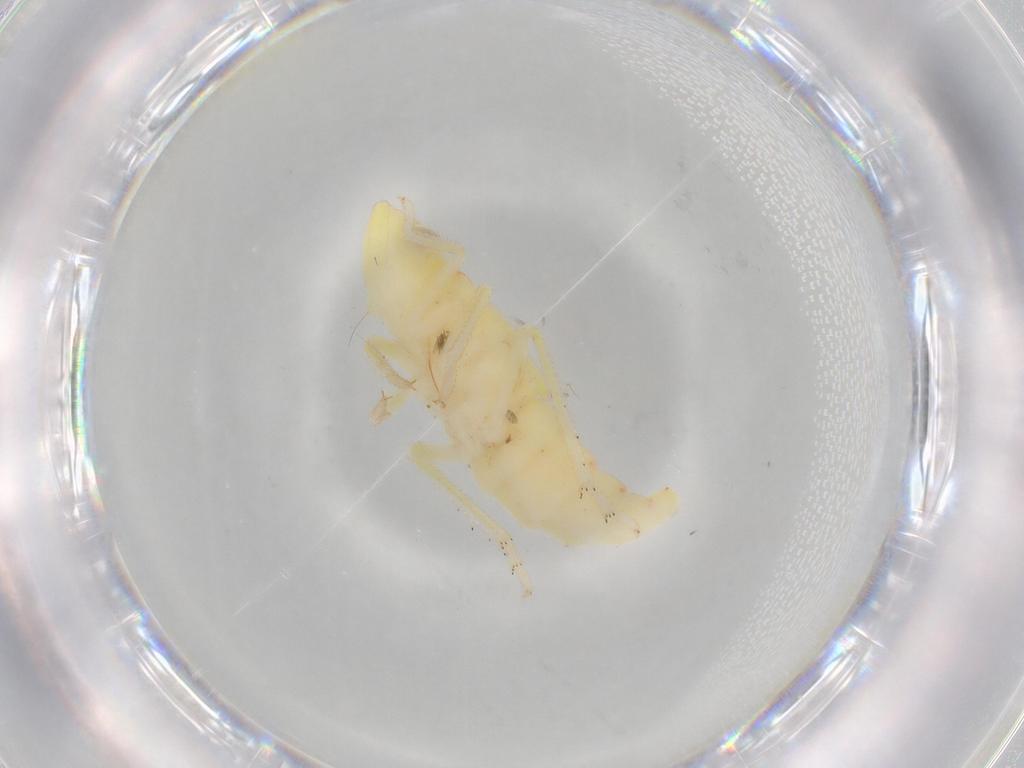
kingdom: Animalia
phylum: Arthropoda
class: Insecta
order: Hemiptera
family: Tropiduchidae
